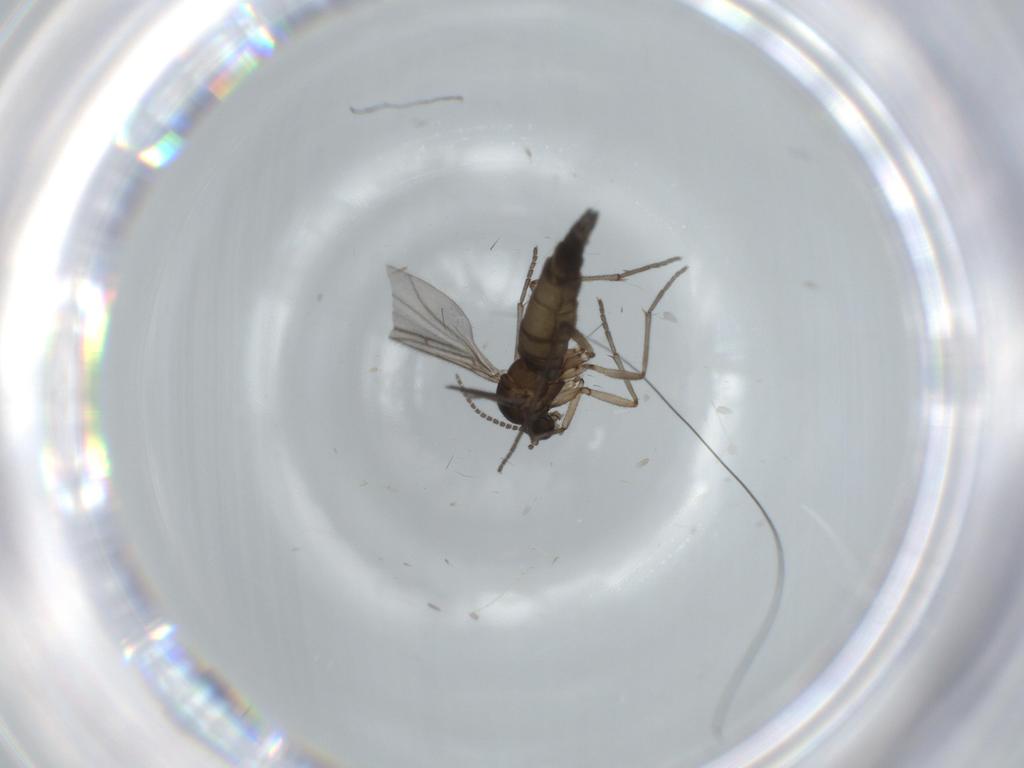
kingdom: Animalia
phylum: Arthropoda
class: Insecta
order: Diptera
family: Sciaridae
